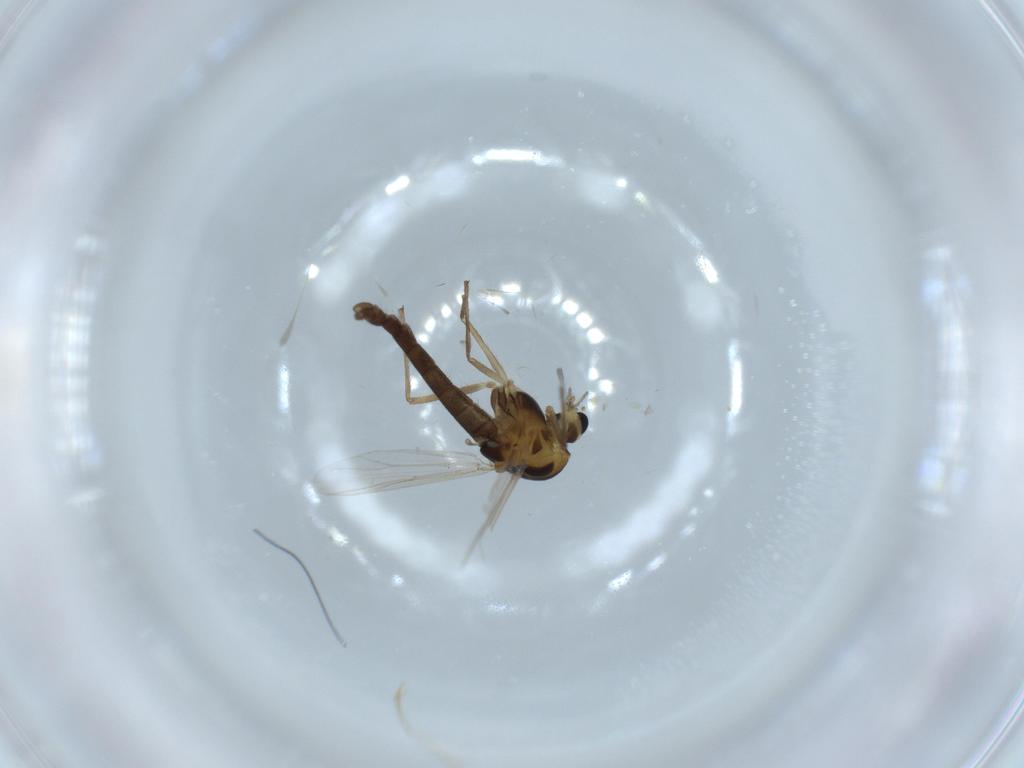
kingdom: Animalia
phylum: Arthropoda
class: Insecta
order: Diptera
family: Chironomidae
